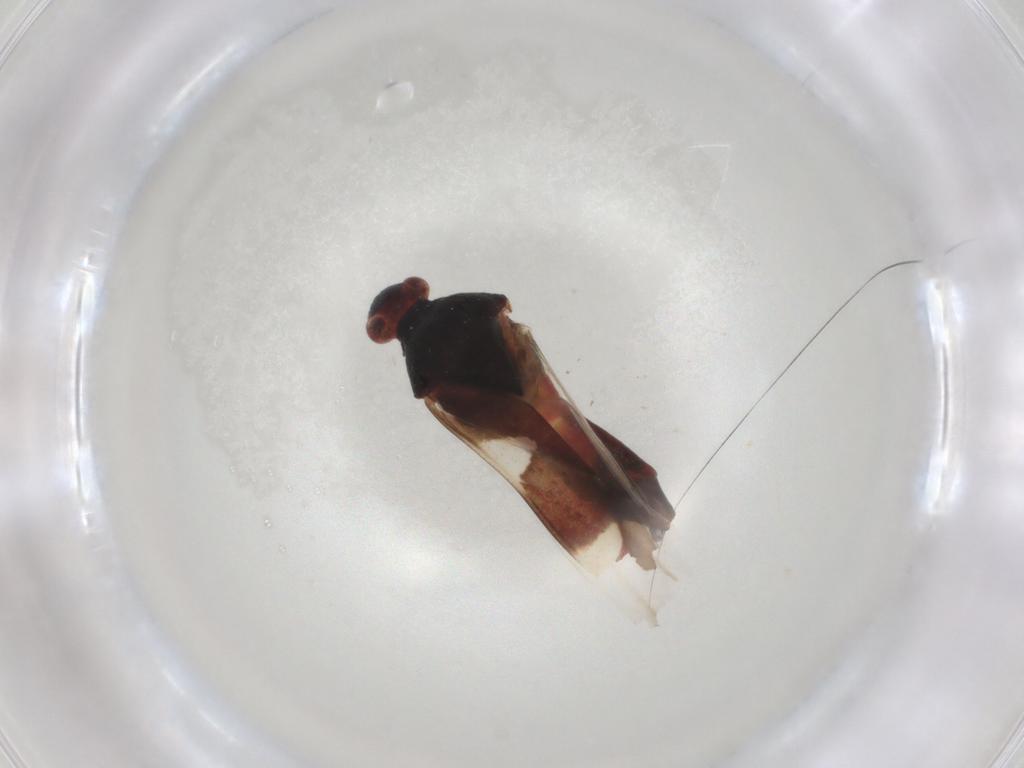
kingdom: Animalia
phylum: Arthropoda
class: Insecta
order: Hemiptera
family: Miridae
